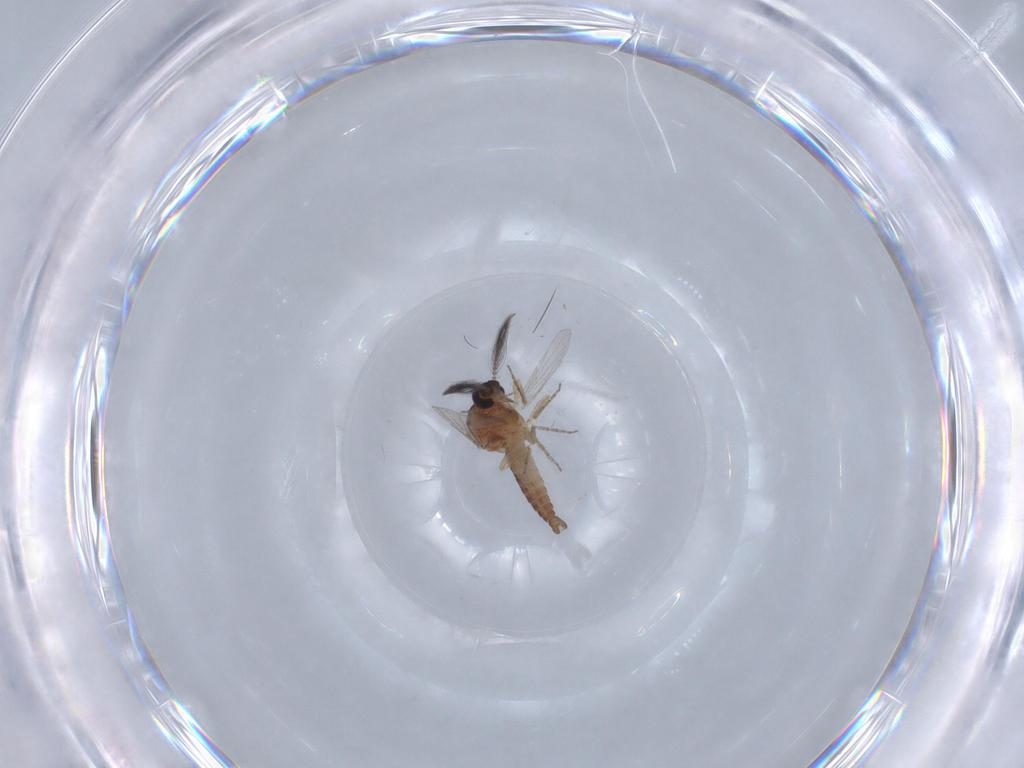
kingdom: Animalia
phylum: Arthropoda
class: Insecta
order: Diptera
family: Ceratopogonidae
